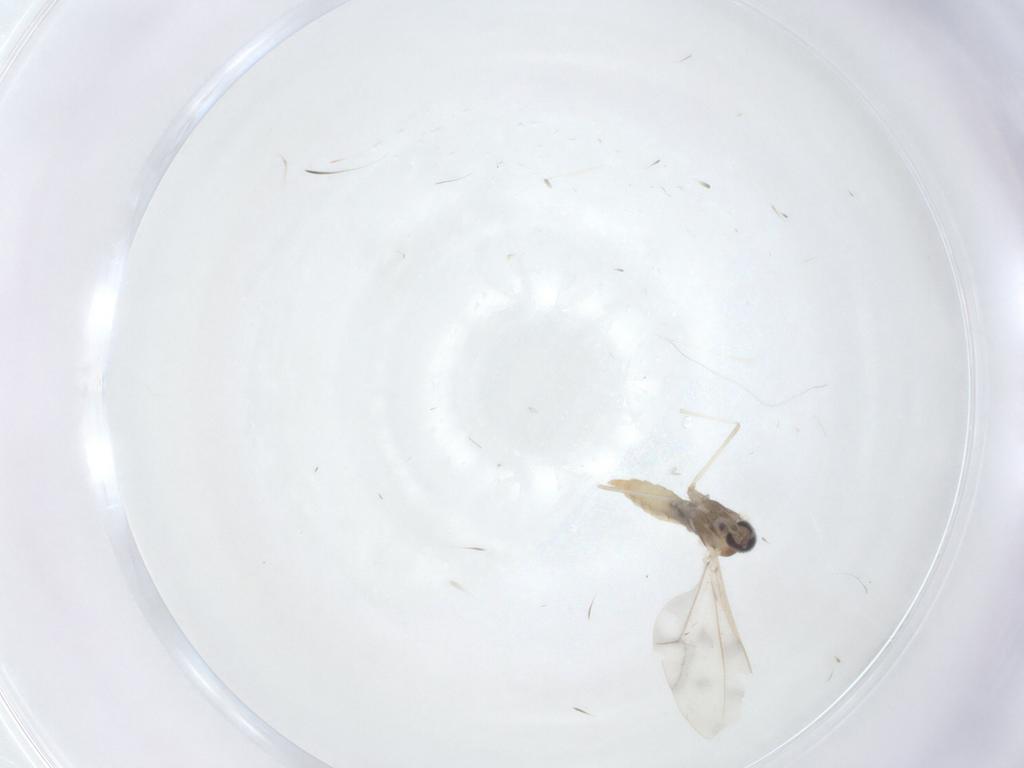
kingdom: Animalia
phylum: Arthropoda
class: Insecta
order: Diptera
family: Cecidomyiidae
